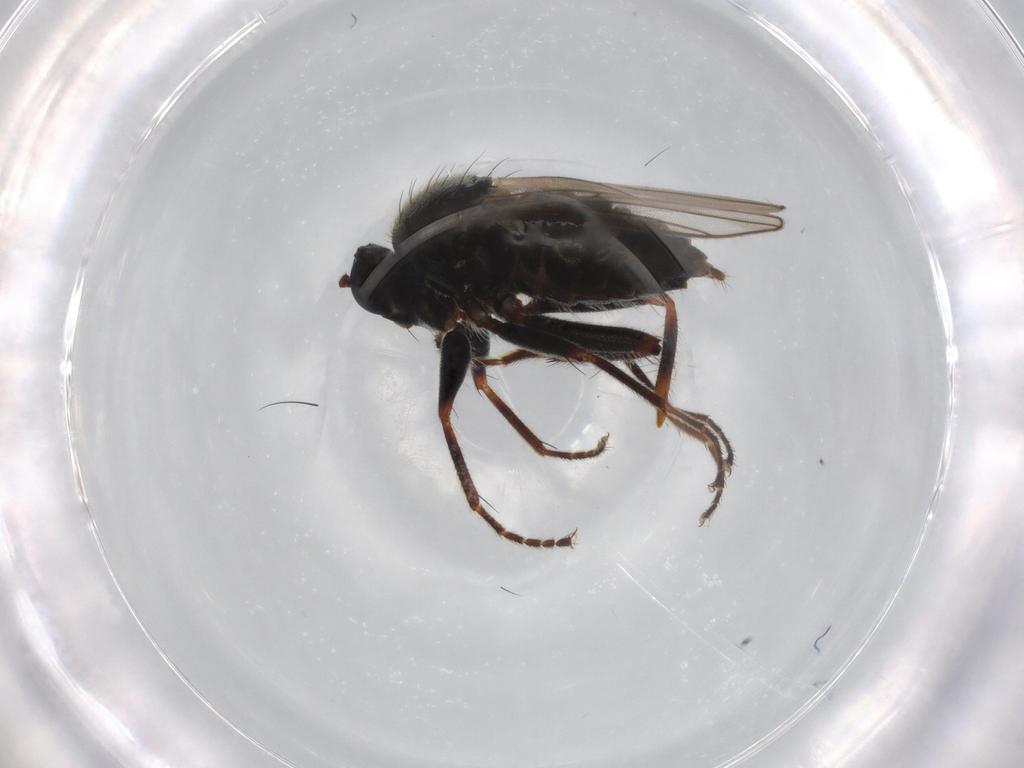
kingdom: Animalia
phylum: Arthropoda
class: Insecta
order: Diptera
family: Hybotidae
